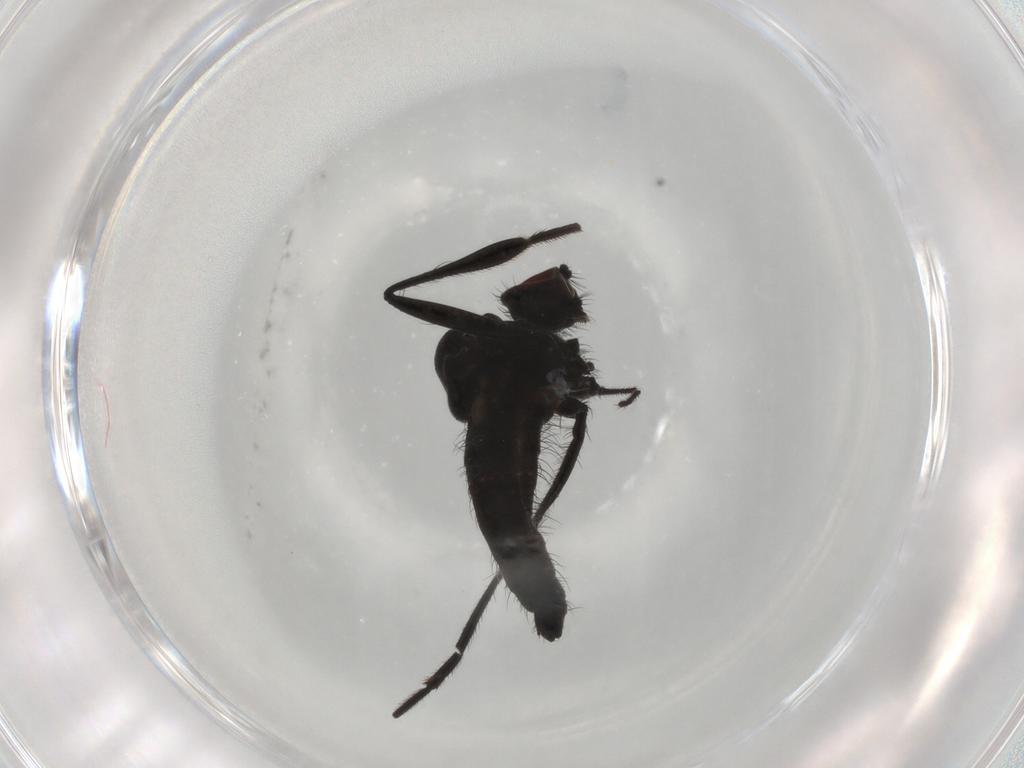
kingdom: Animalia
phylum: Arthropoda
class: Insecta
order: Diptera
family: Hybotidae
